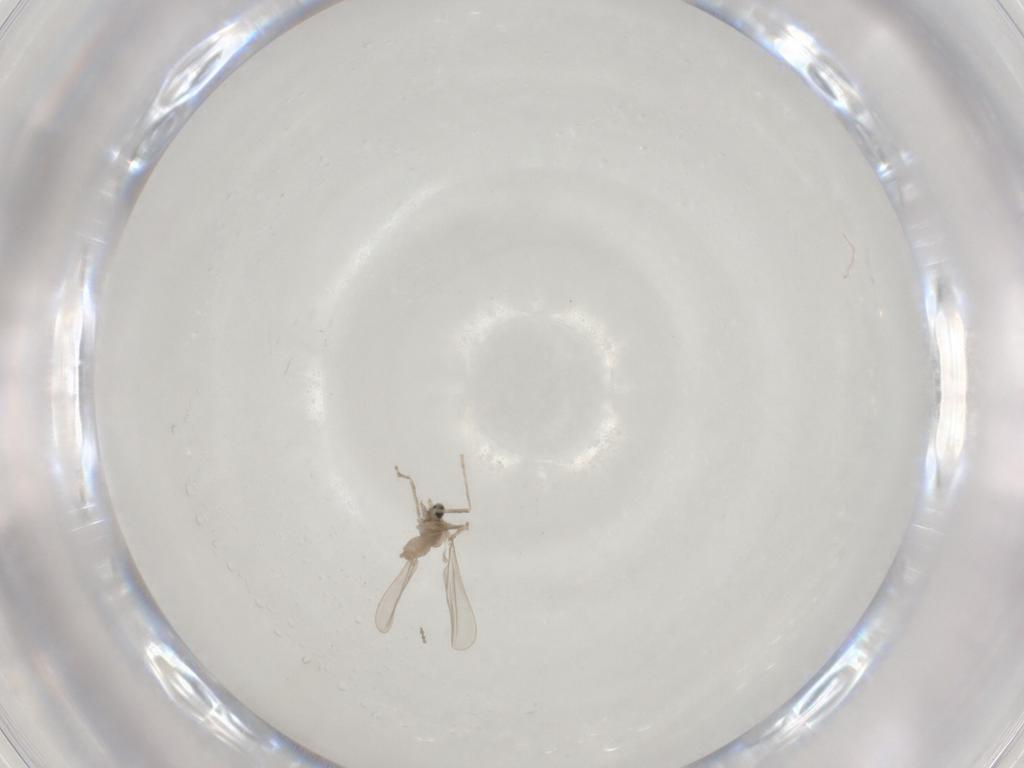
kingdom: Animalia
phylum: Arthropoda
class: Insecta
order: Diptera
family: Cecidomyiidae
